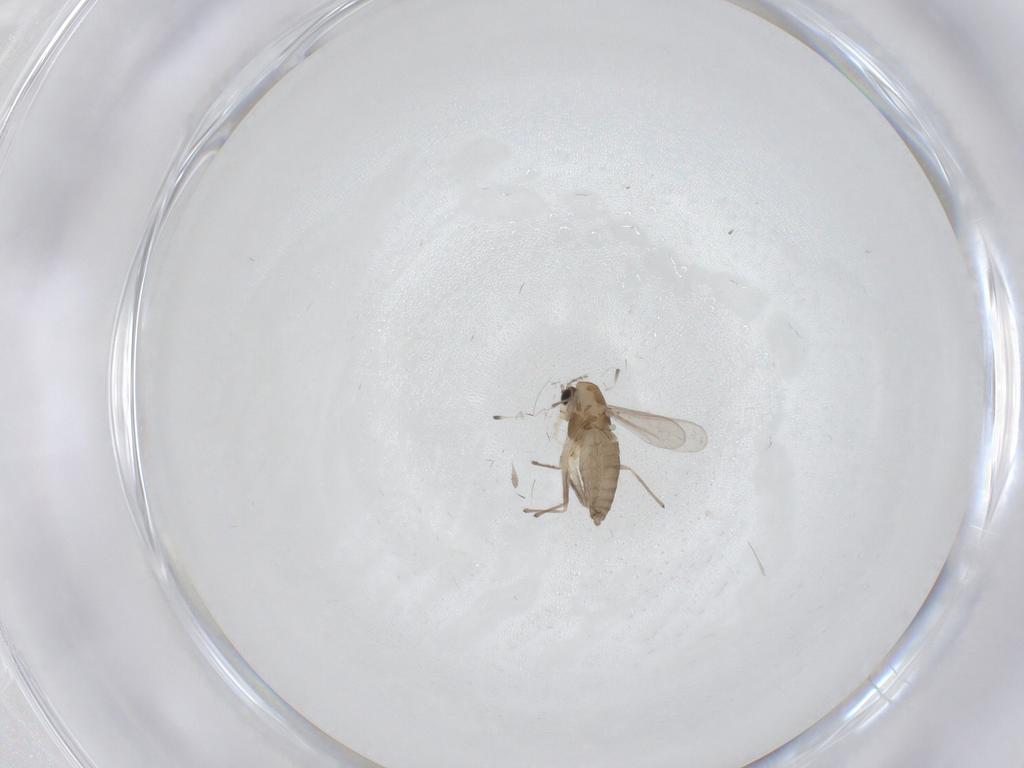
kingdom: Animalia
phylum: Arthropoda
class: Insecta
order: Diptera
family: Chironomidae
